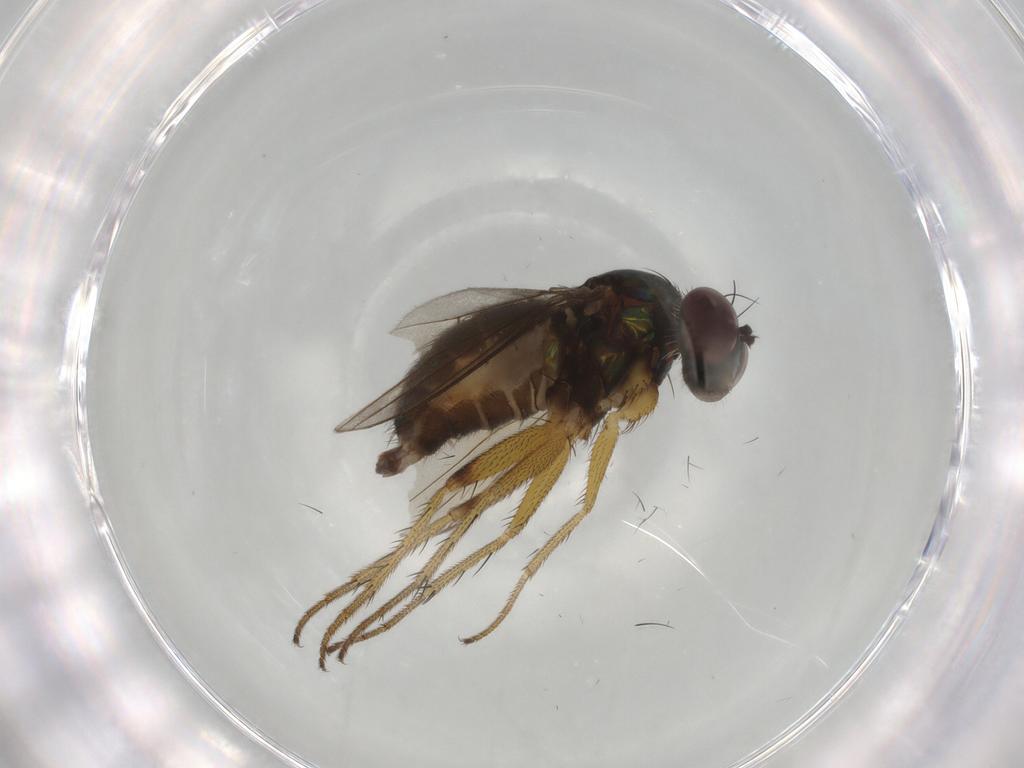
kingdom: Animalia
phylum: Arthropoda
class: Insecta
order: Diptera
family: Dolichopodidae
